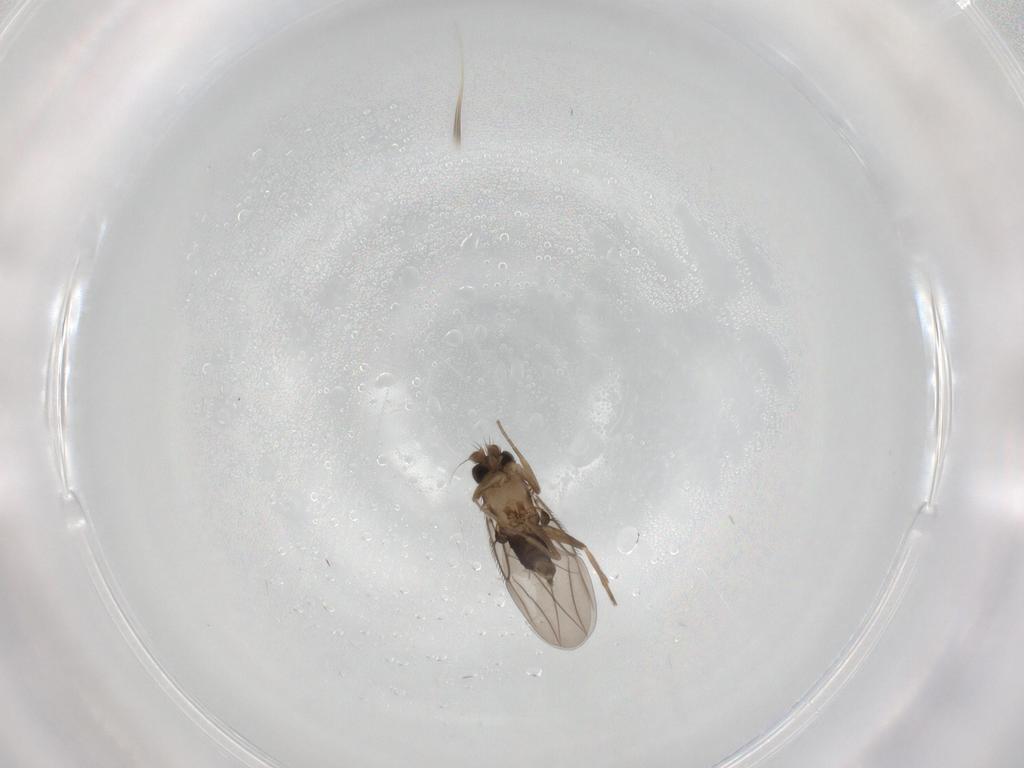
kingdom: Animalia
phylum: Arthropoda
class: Insecta
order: Diptera
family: Phoridae
